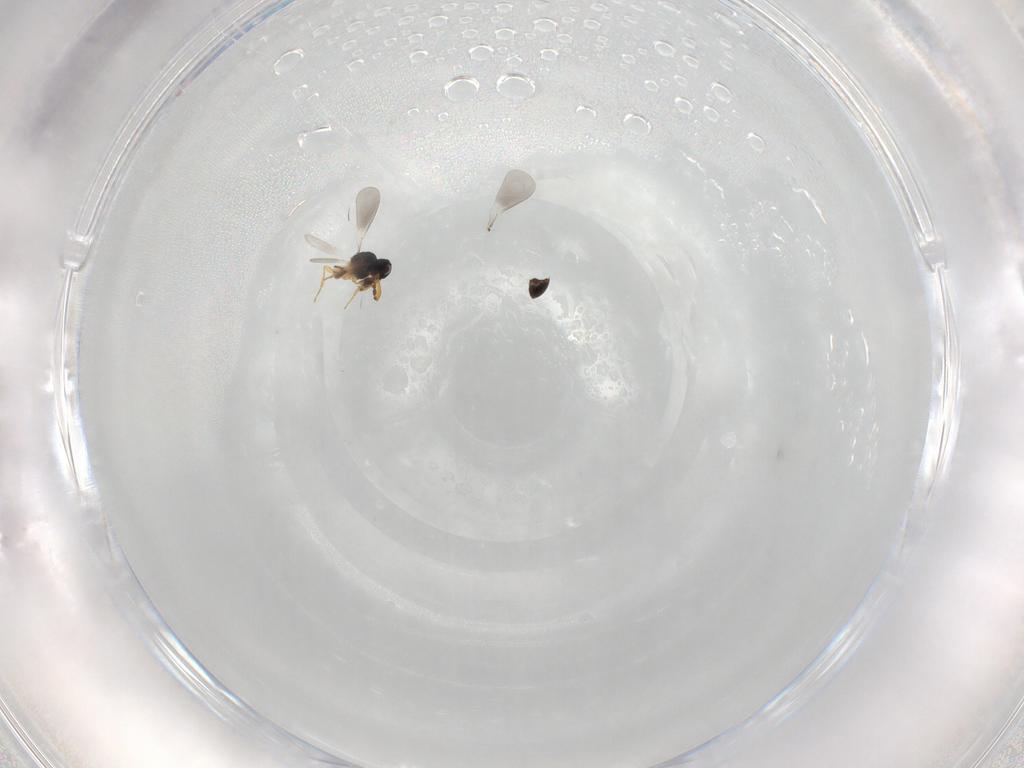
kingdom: Animalia
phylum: Arthropoda
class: Insecta
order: Hymenoptera
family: Platygastridae
